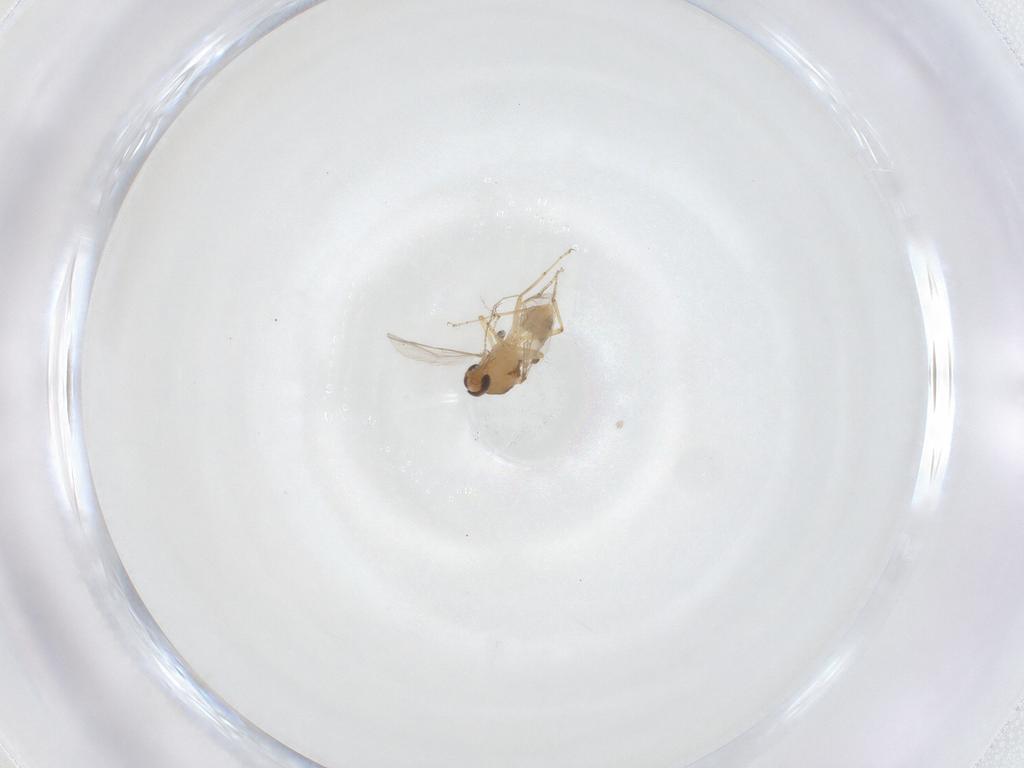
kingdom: Animalia
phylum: Arthropoda
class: Insecta
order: Diptera
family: Ceratopogonidae
